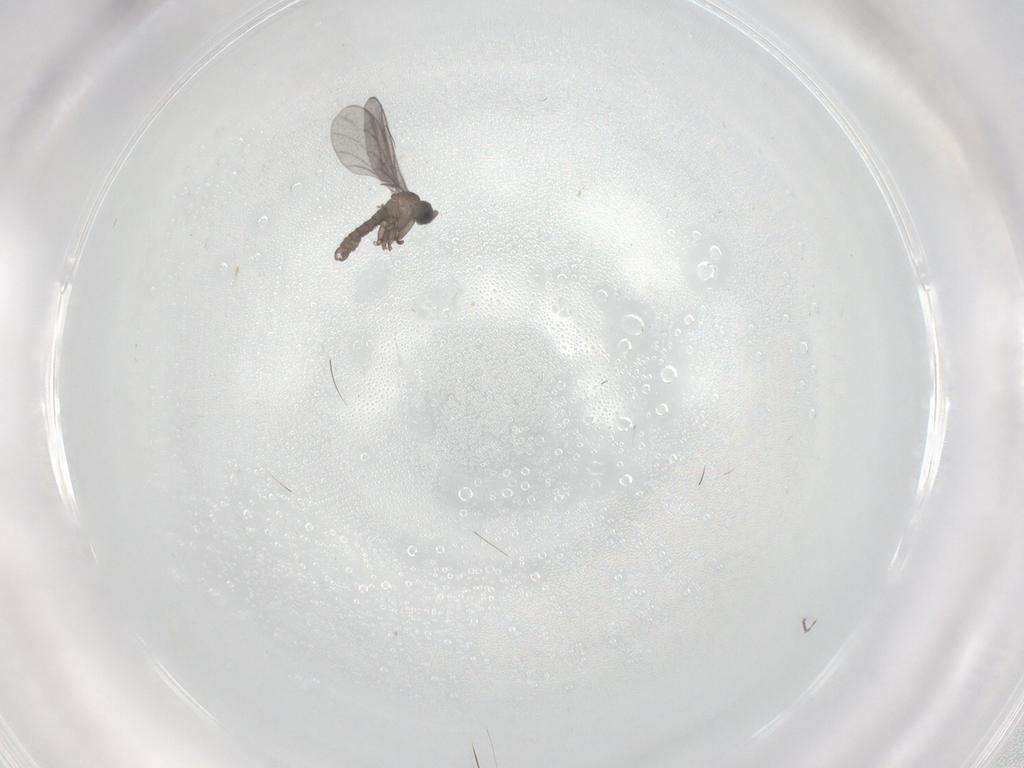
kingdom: Animalia
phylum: Arthropoda
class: Insecta
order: Diptera
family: Sciaridae
